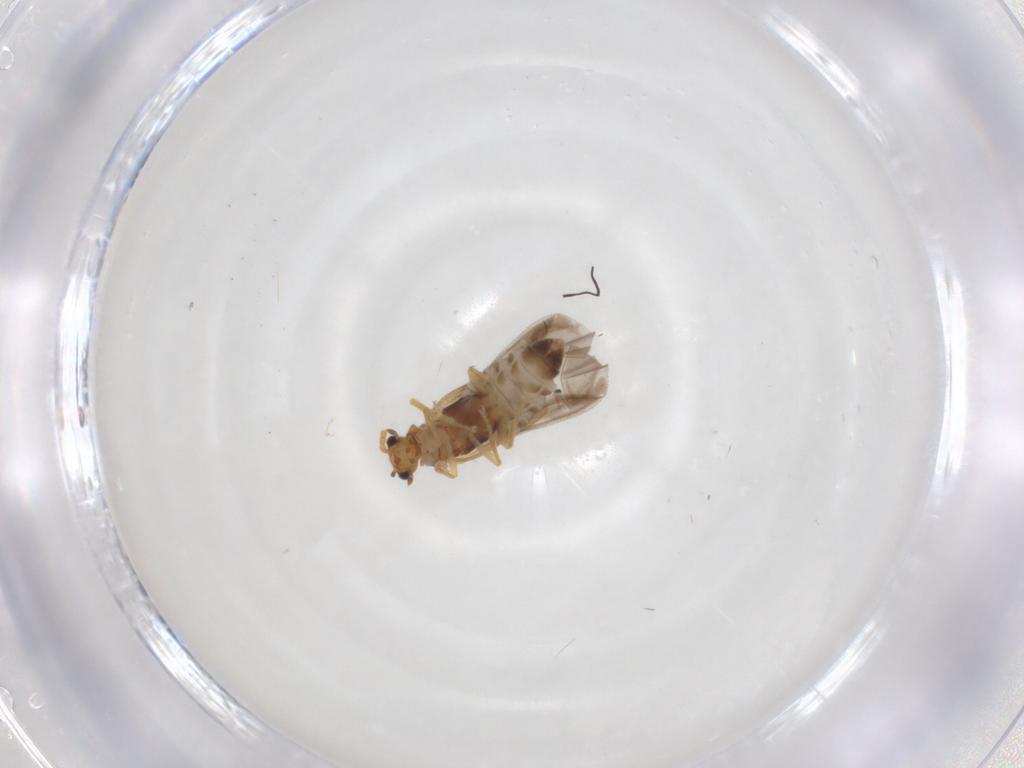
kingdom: Animalia
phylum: Arthropoda
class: Insecta
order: Coleoptera
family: Cantharidae
